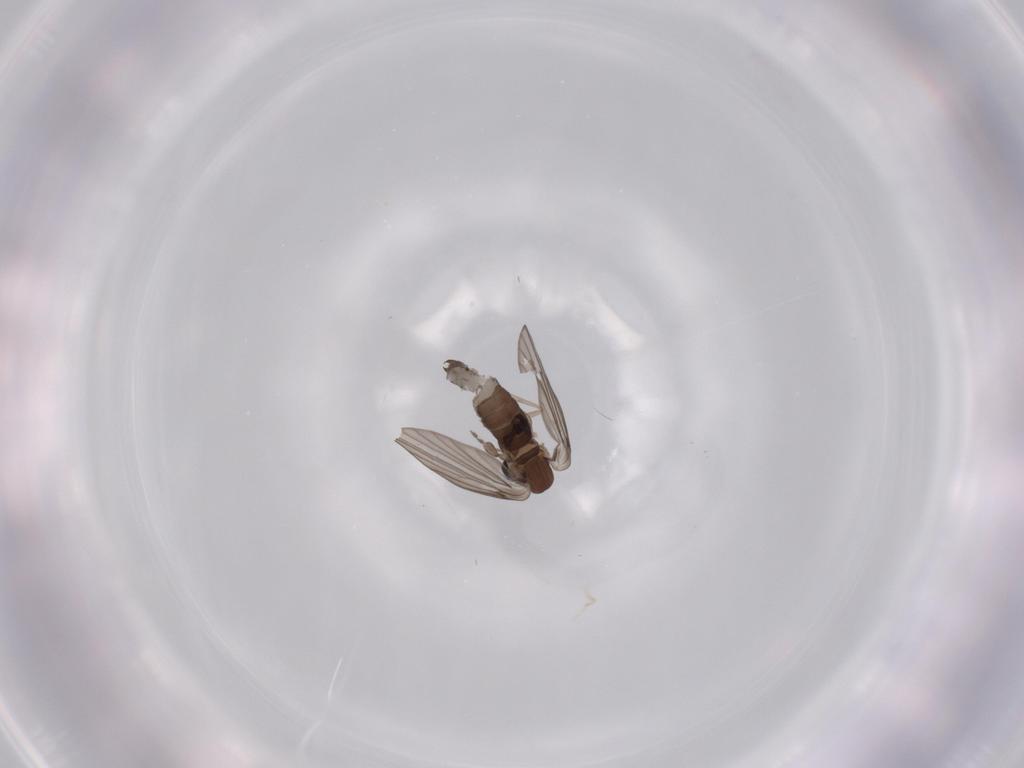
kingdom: Animalia
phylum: Arthropoda
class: Insecta
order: Diptera
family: Psychodidae
